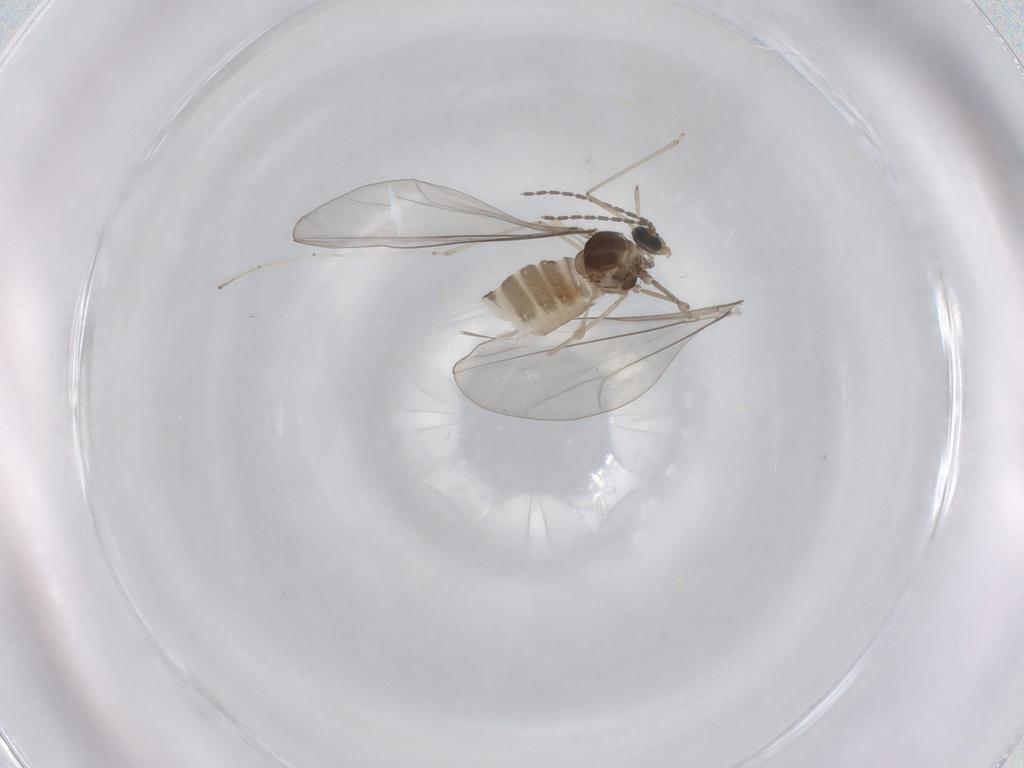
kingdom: Animalia
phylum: Arthropoda
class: Insecta
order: Diptera
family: Cecidomyiidae
